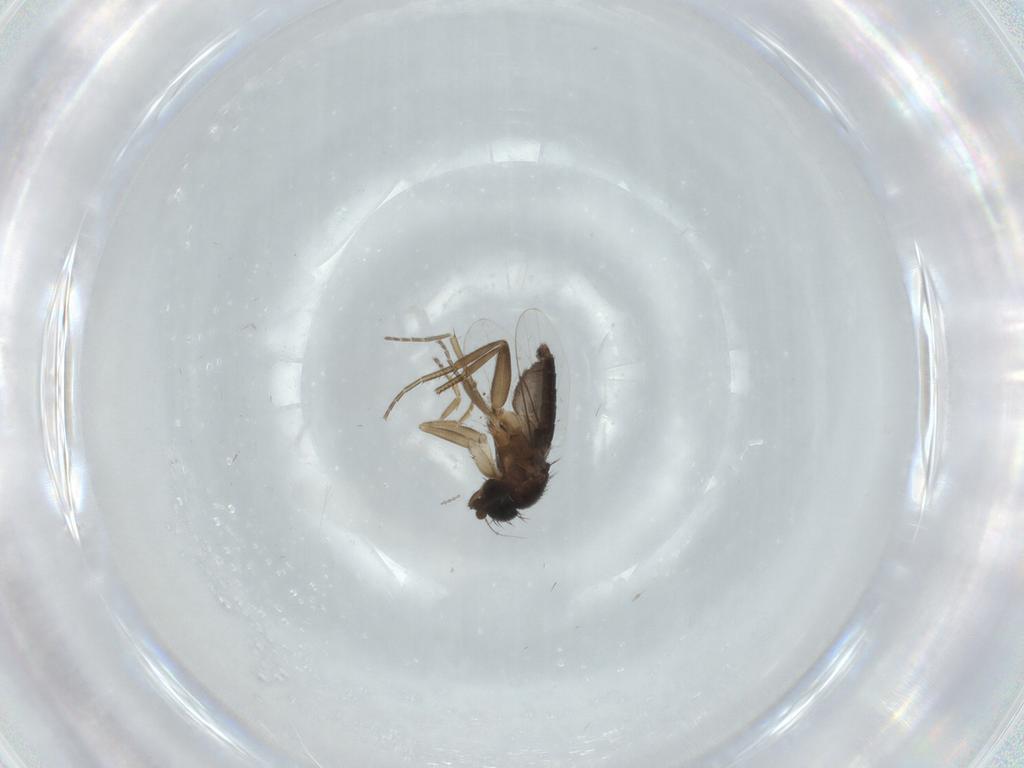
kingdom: Animalia
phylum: Arthropoda
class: Insecta
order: Diptera
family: Phoridae
